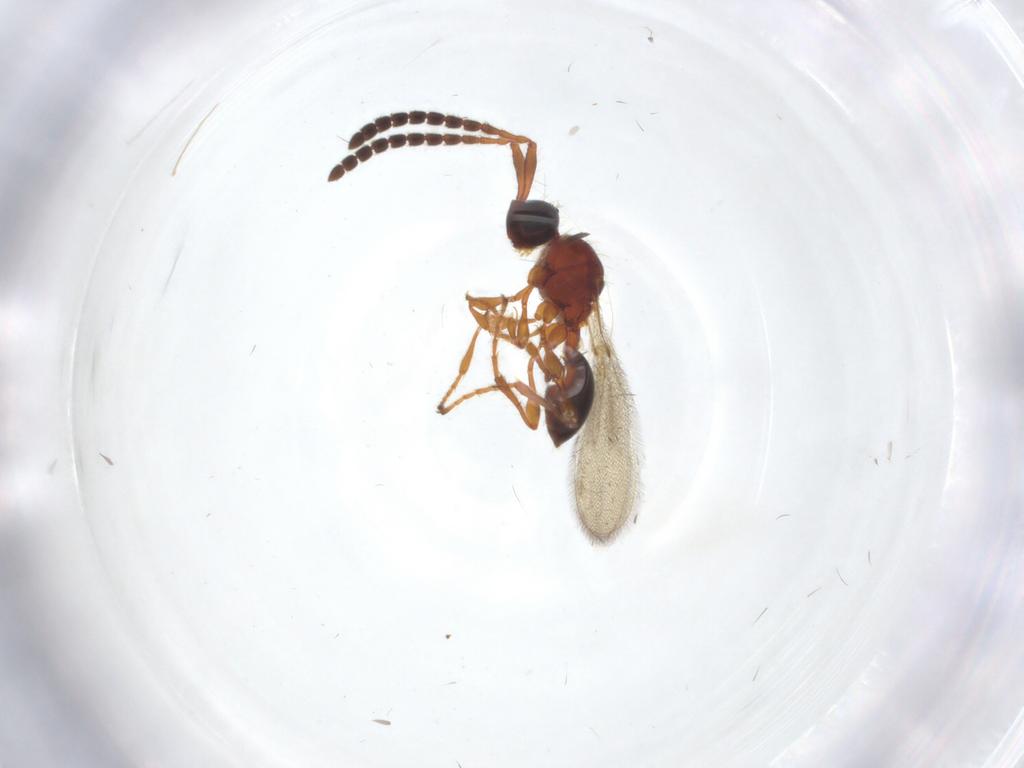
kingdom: Animalia
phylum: Arthropoda
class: Insecta
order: Hymenoptera
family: Diapriidae
